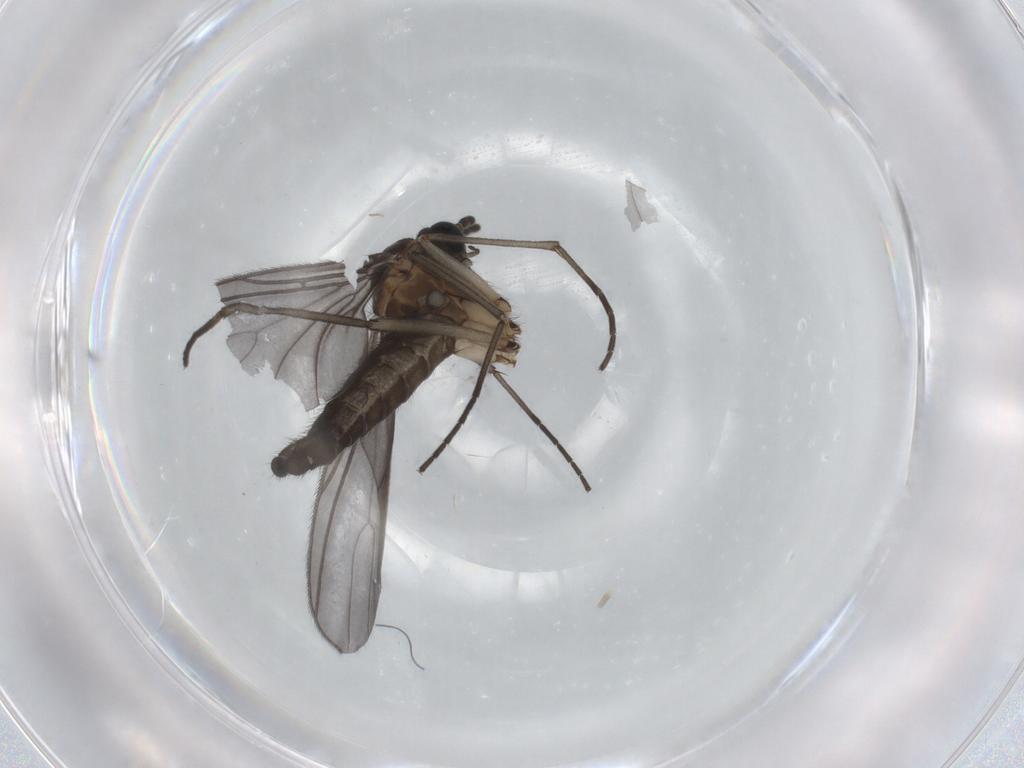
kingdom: Animalia
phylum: Arthropoda
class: Insecta
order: Diptera
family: Sciaridae
